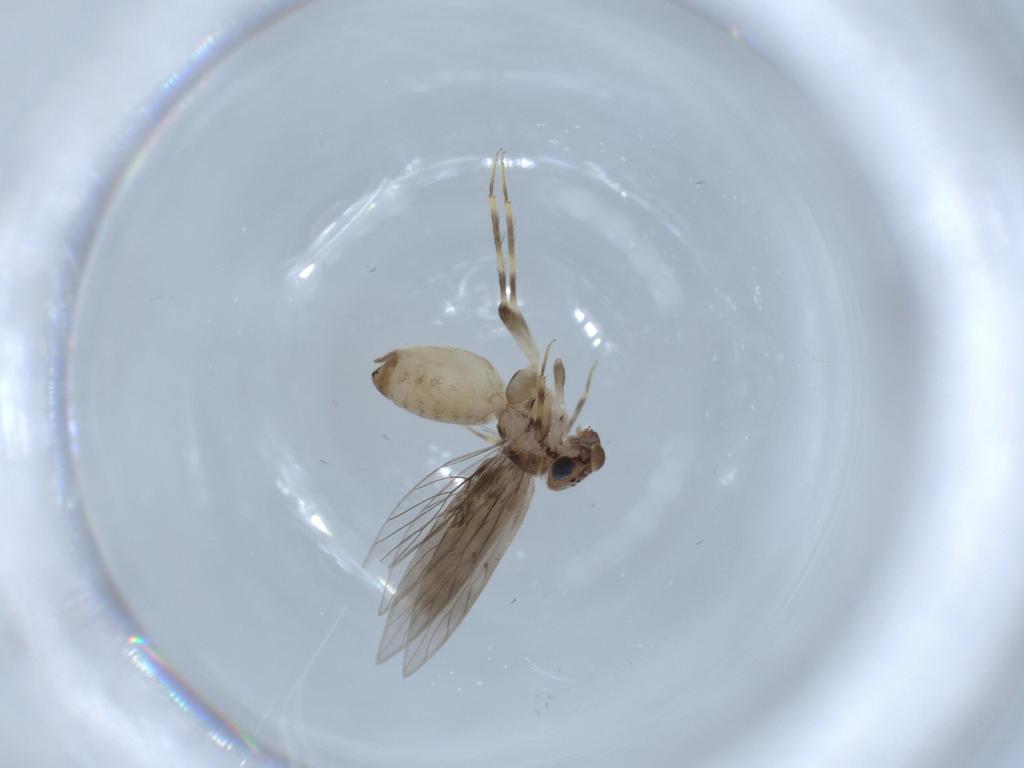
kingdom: Animalia
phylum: Arthropoda
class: Insecta
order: Psocodea
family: Lepidopsocidae
